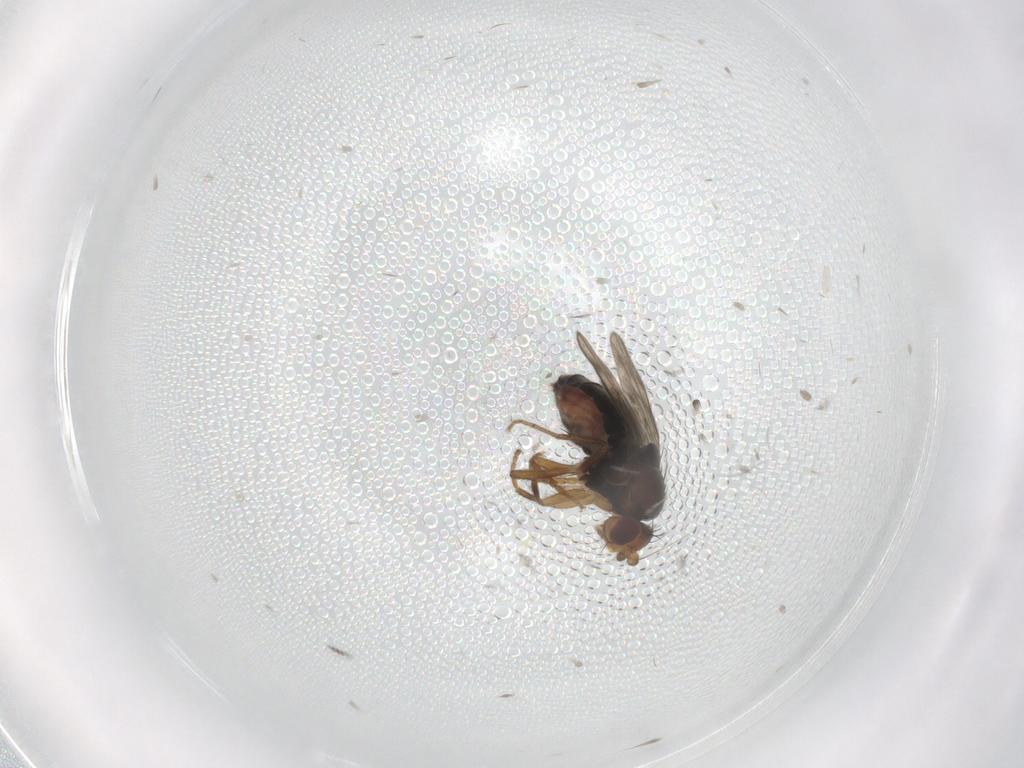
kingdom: Animalia
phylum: Arthropoda
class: Insecta
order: Diptera
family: Sphaeroceridae
